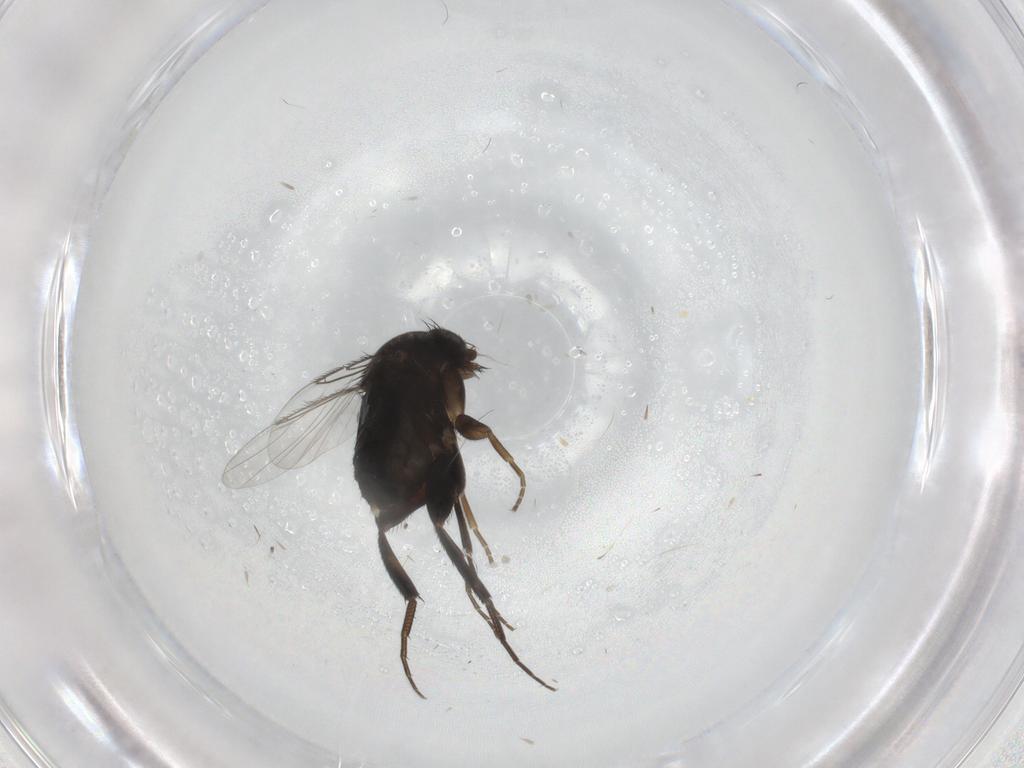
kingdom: Animalia
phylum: Arthropoda
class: Insecta
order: Diptera
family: Phoridae
